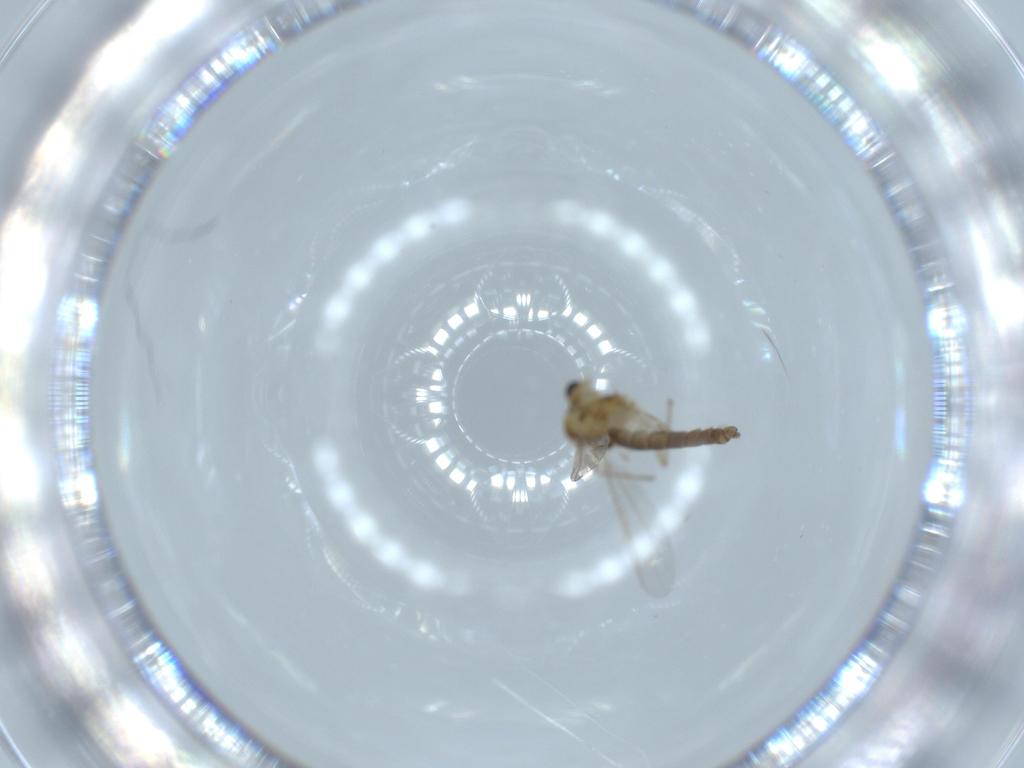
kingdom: Animalia
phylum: Arthropoda
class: Insecta
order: Diptera
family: Chironomidae
